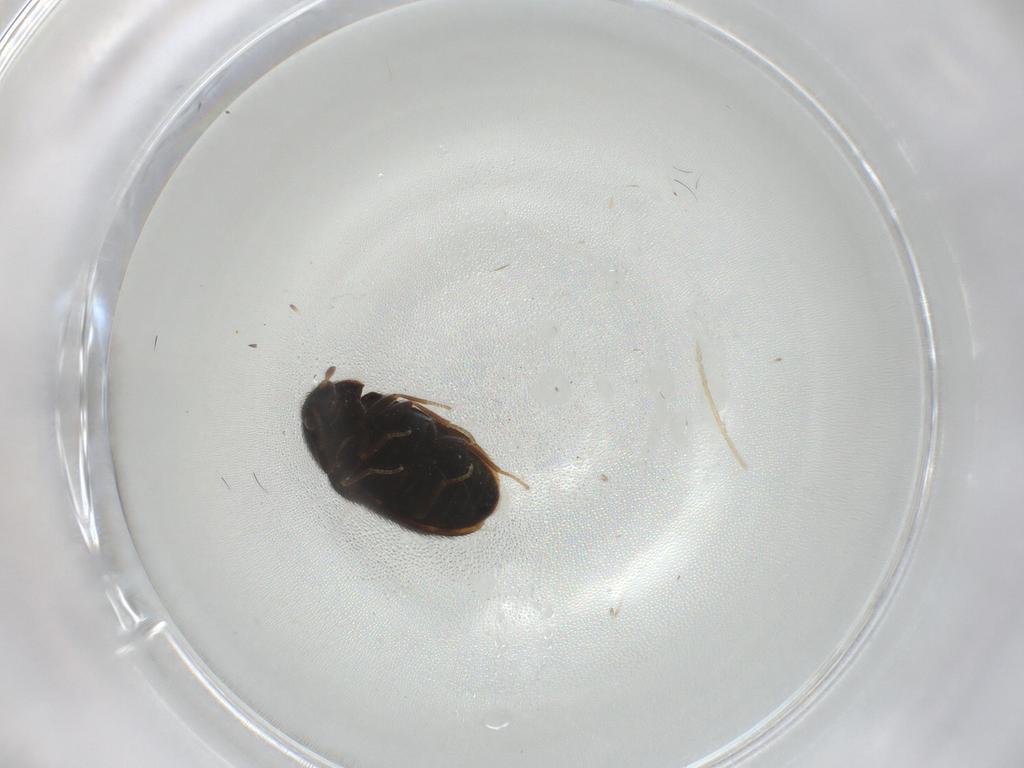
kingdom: Animalia
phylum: Arthropoda
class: Insecta
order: Coleoptera
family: Dermestidae
